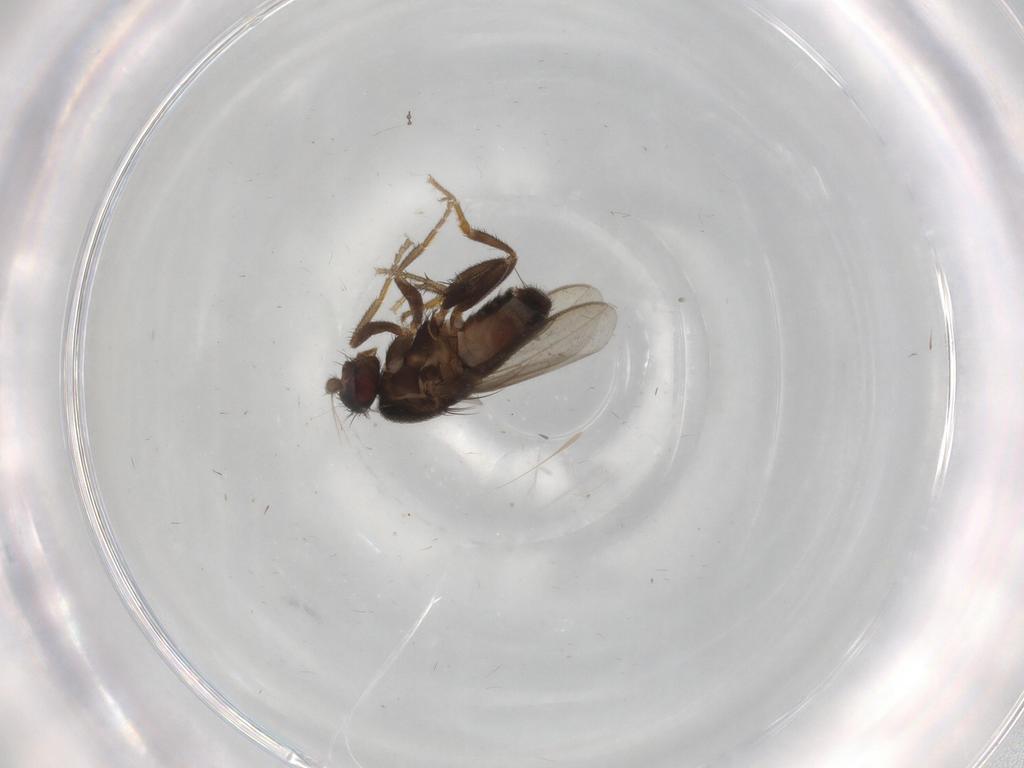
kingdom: Animalia
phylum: Arthropoda
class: Insecta
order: Diptera
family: Sphaeroceridae
